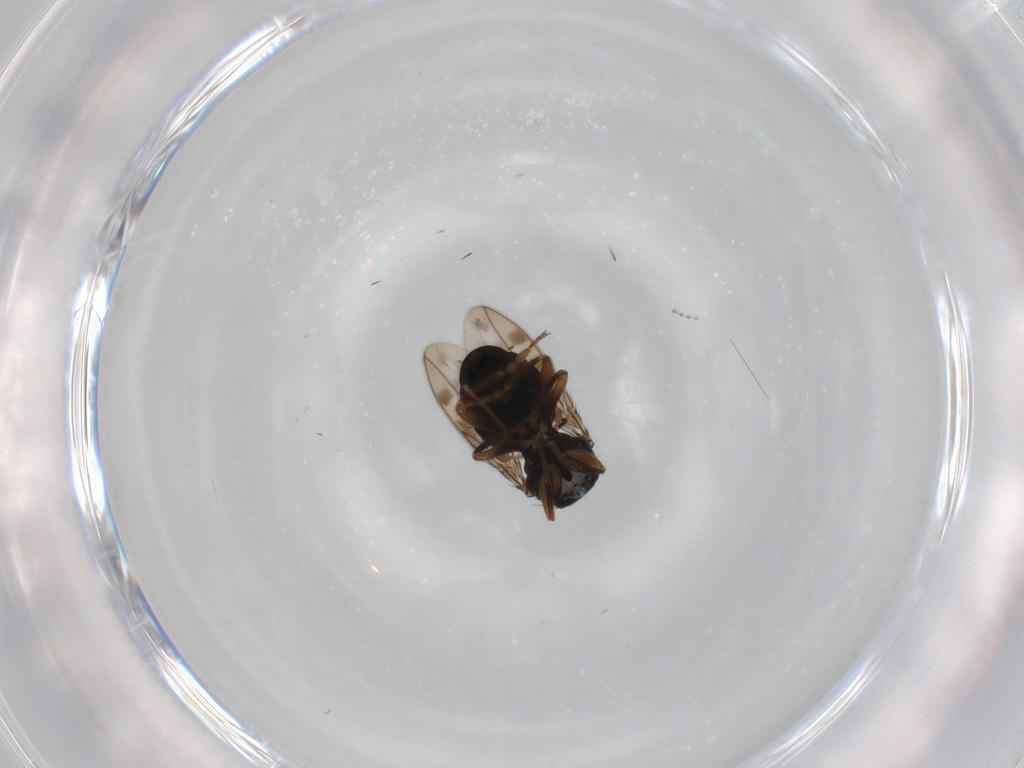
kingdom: Animalia
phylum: Arthropoda
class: Insecta
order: Diptera
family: Sphaeroceridae
